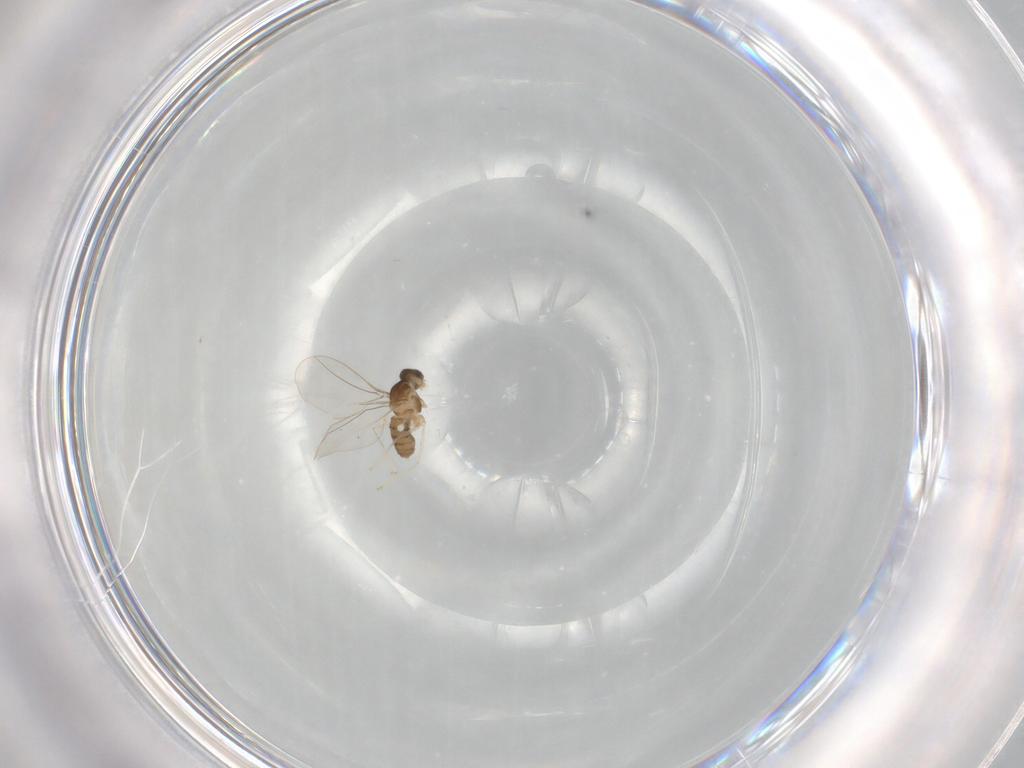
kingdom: Animalia
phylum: Arthropoda
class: Insecta
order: Diptera
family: Cecidomyiidae
